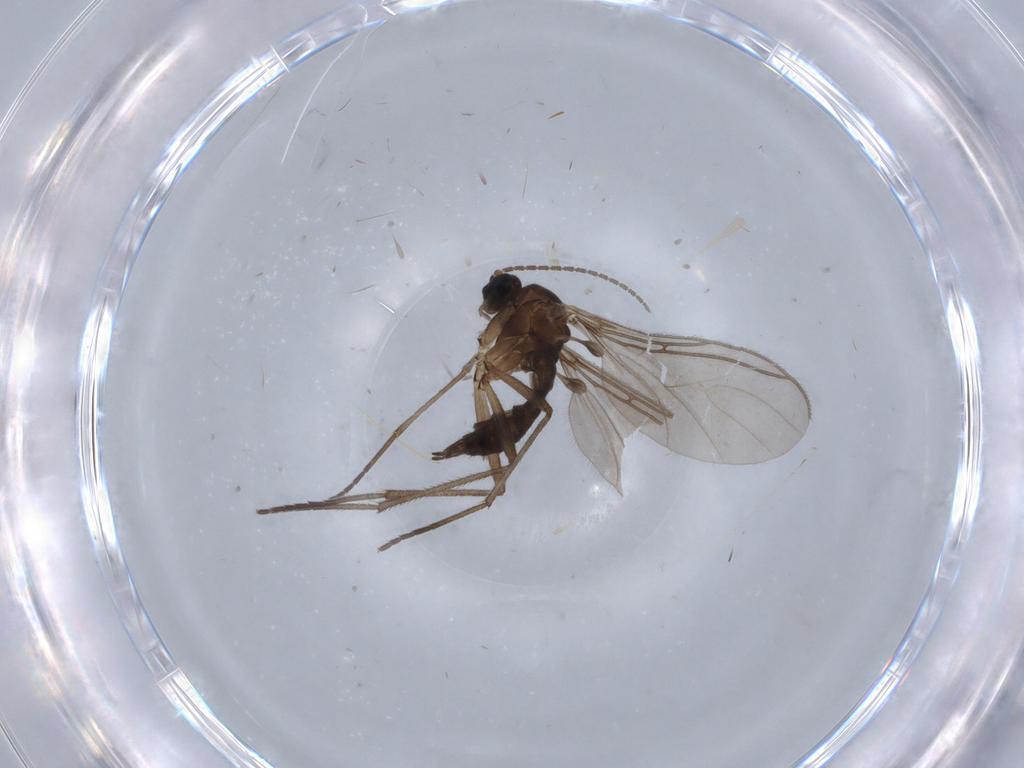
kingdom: Animalia
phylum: Arthropoda
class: Insecta
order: Diptera
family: Sciaridae
